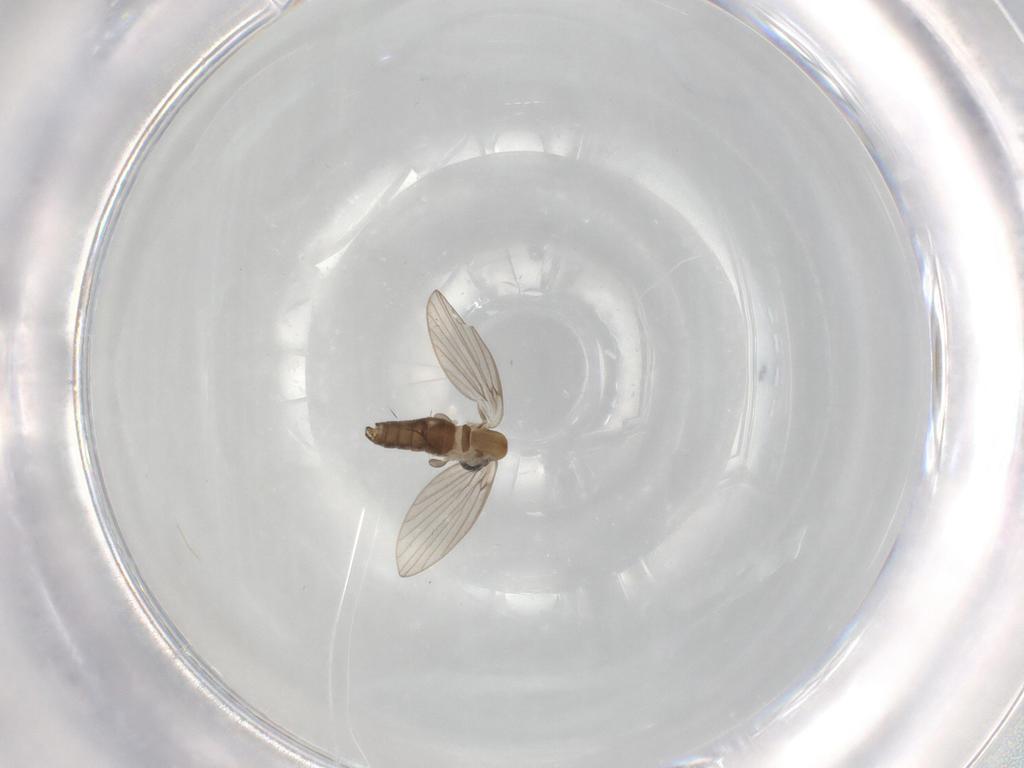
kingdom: Animalia
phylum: Arthropoda
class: Insecta
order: Diptera
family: Psychodidae
